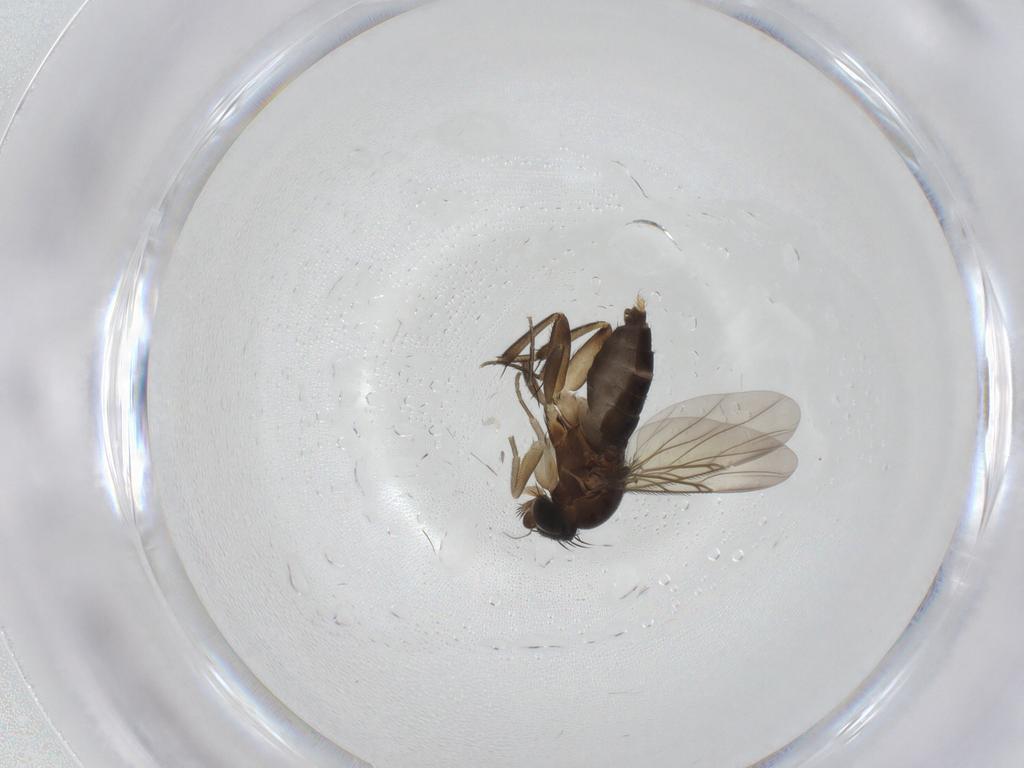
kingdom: Animalia
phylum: Arthropoda
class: Insecta
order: Diptera
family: Phoridae
